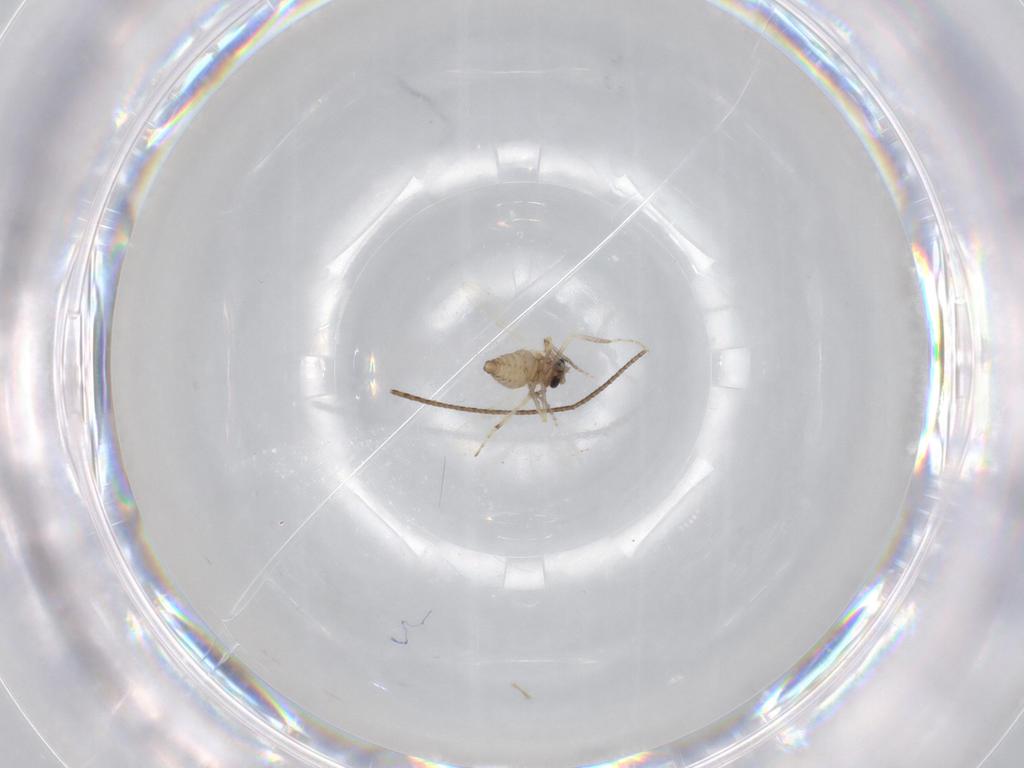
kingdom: Animalia
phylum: Arthropoda
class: Insecta
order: Diptera
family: Ceratopogonidae
